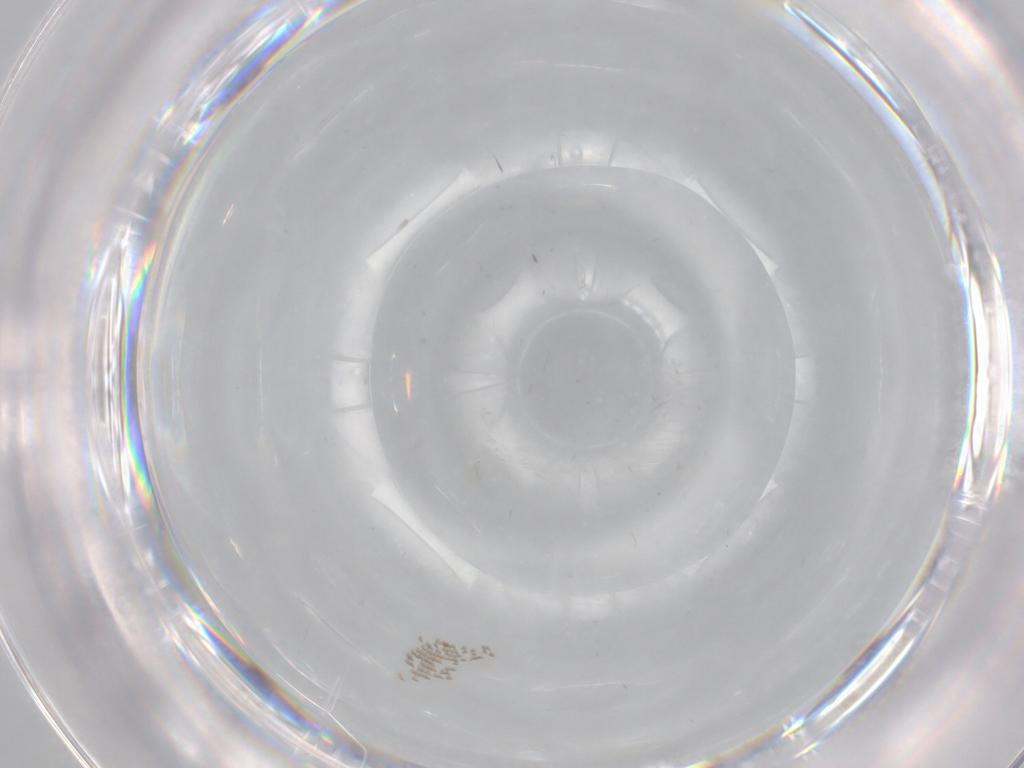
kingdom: Animalia
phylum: Arthropoda
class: Insecta
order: Diptera
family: Cecidomyiidae
